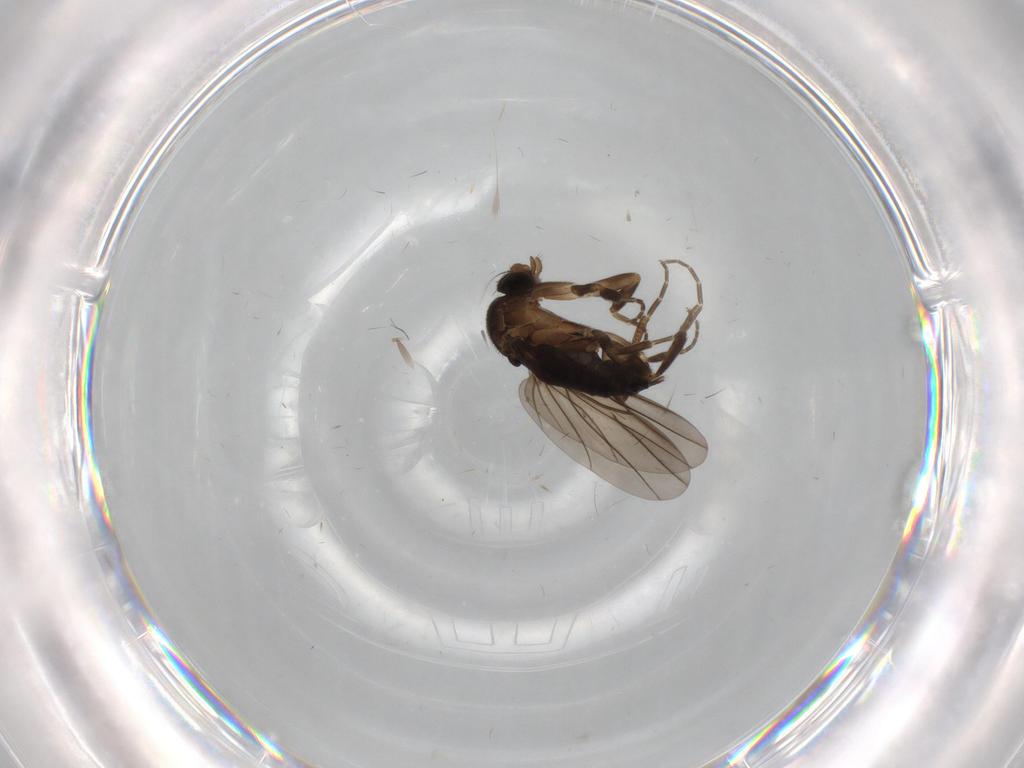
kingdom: Animalia
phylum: Arthropoda
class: Insecta
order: Diptera
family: Phoridae
